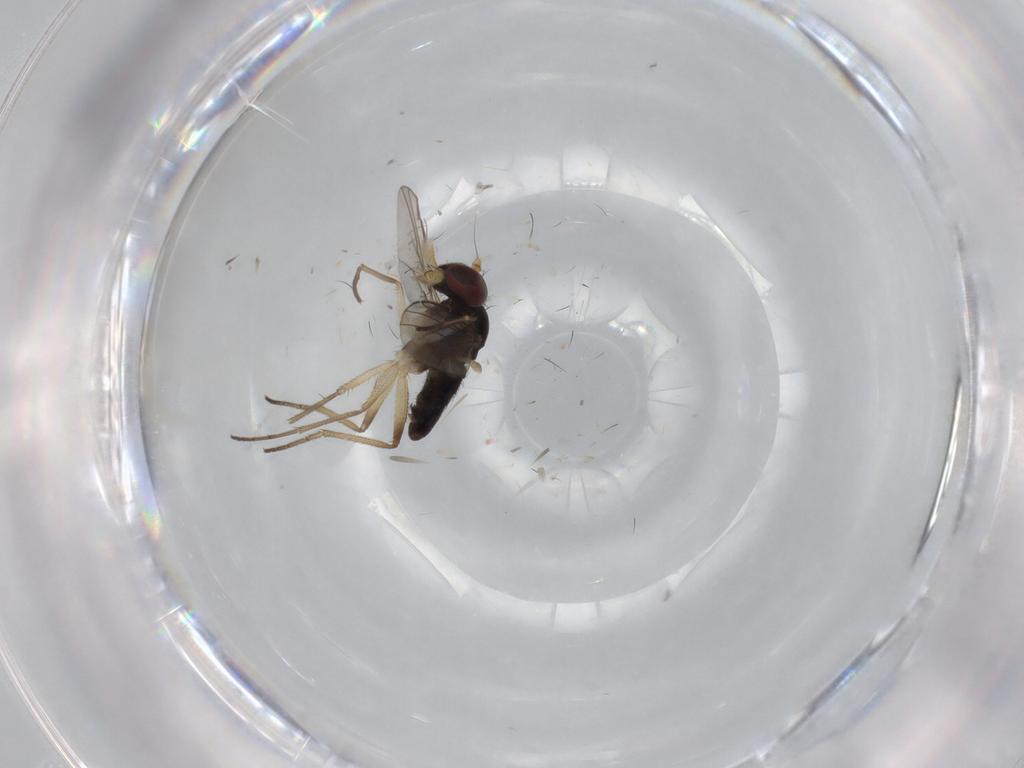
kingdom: Animalia
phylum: Arthropoda
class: Insecta
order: Diptera
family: Dolichopodidae
